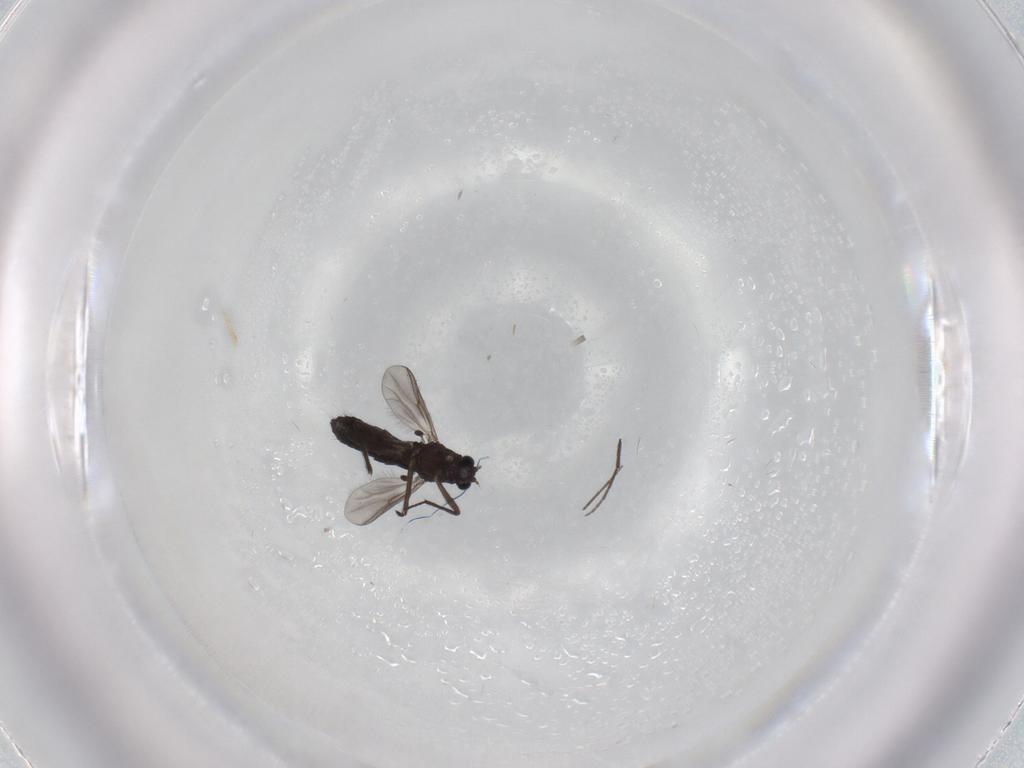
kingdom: Animalia
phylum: Arthropoda
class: Insecta
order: Diptera
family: Chironomidae
